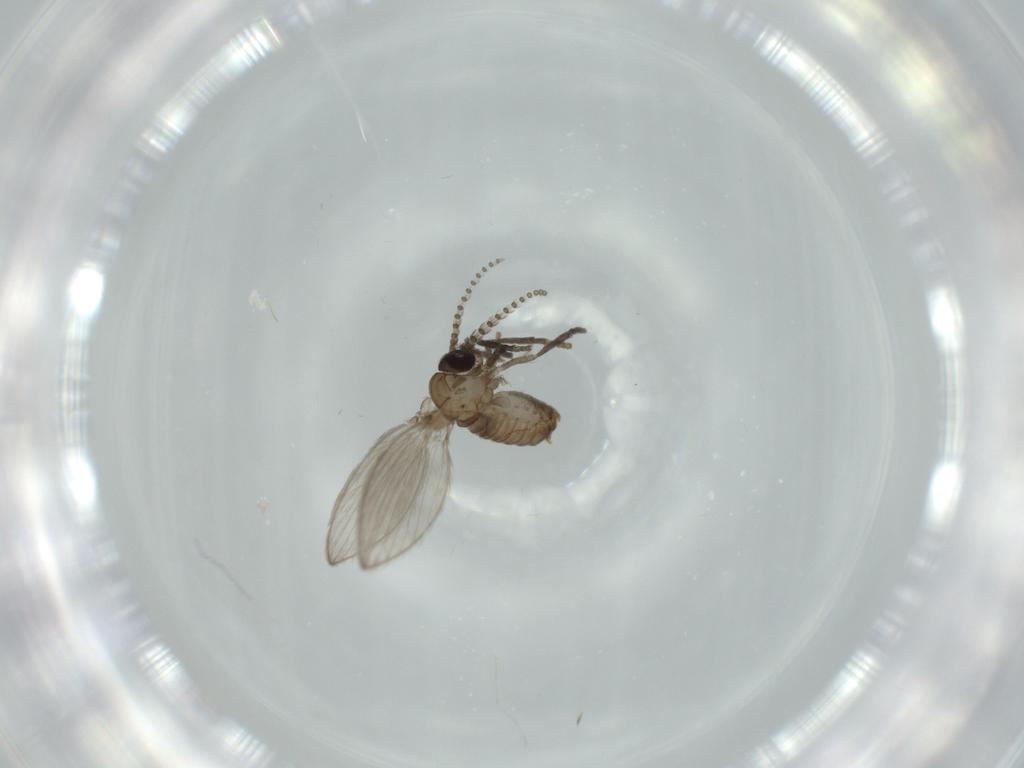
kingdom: Animalia
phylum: Arthropoda
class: Insecta
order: Diptera
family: Psychodidae
